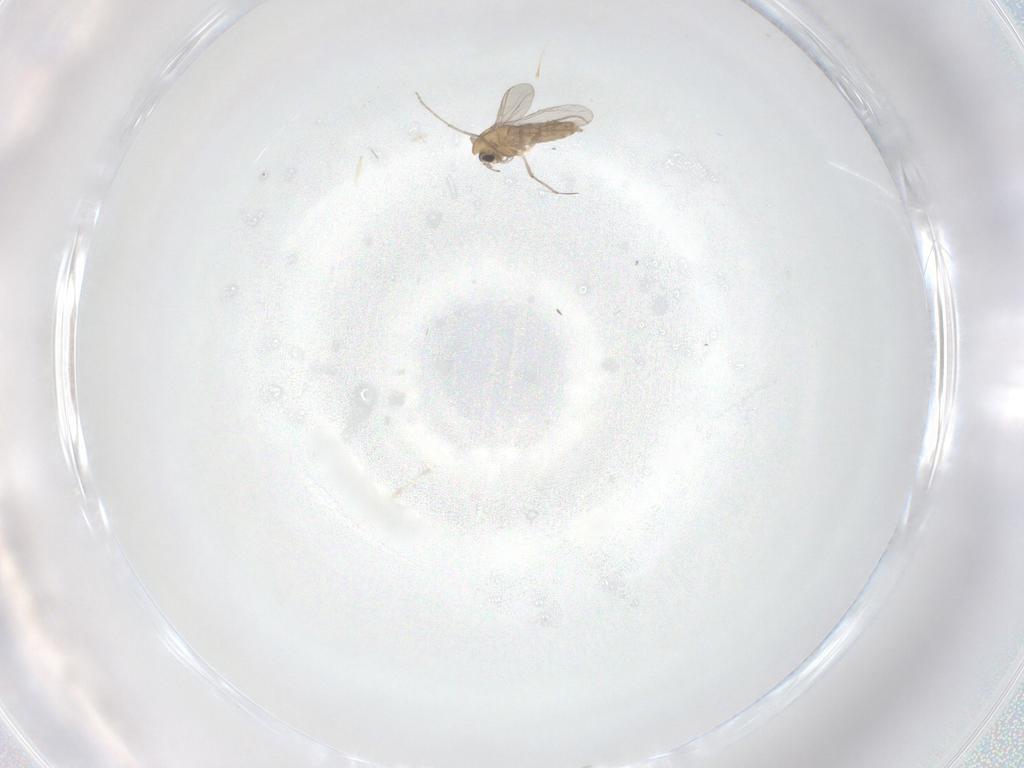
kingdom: Animalia
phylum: Arthropoda
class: Insecta
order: Diptera
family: Chironomidae
